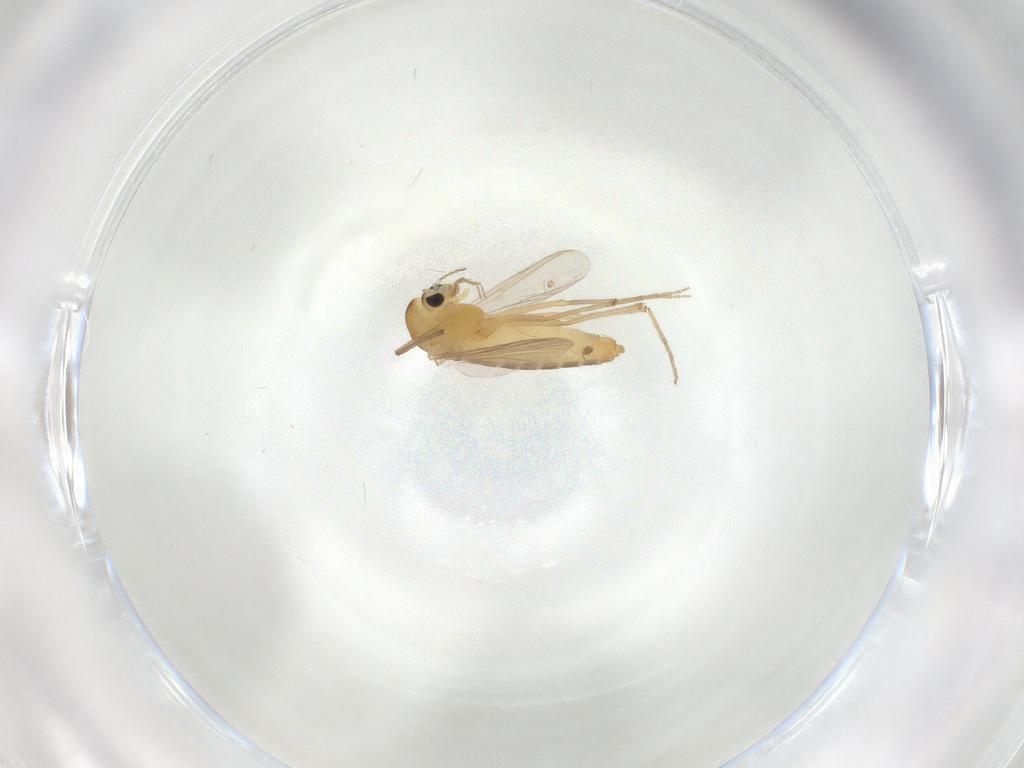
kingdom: Animalia
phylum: Arthropoda
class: Insecta
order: Diptera
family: Chironomidae
